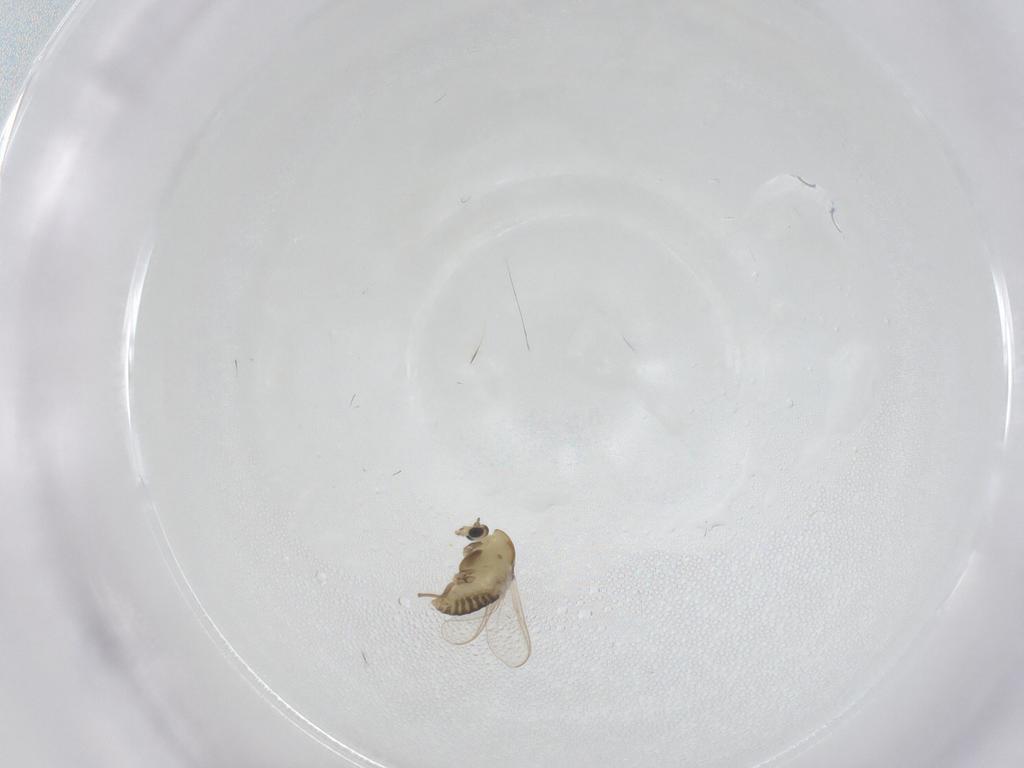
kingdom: Animalia
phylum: Arthropoda
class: Insecta
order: Diptera
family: Chironomidae
